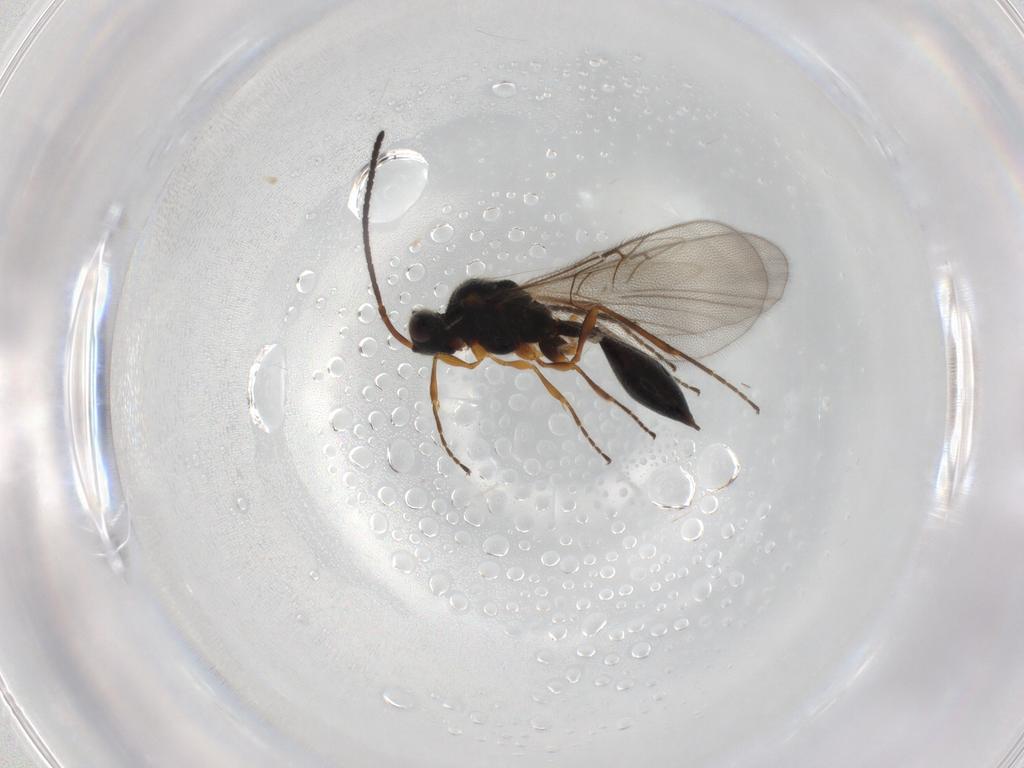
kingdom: Animalia
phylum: Arthropoda
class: Insecta
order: Hymenoptera
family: Diapriidae
